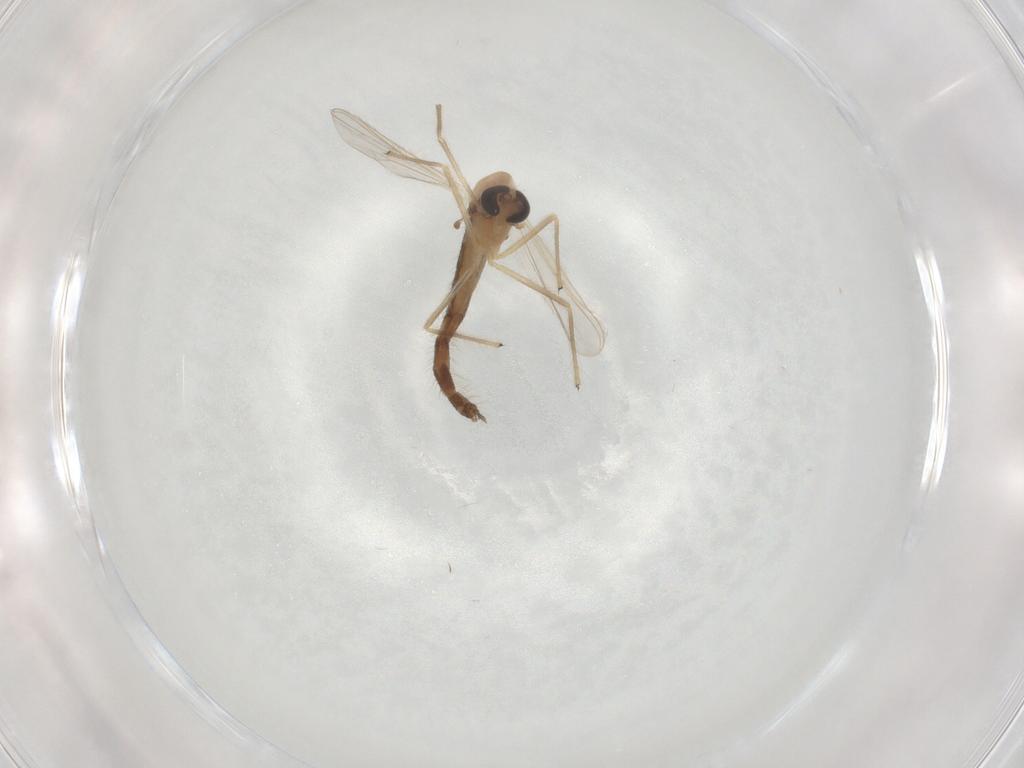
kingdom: Animalia
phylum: Arthropoda
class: Insecta
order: Diptera
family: Chironomidae
